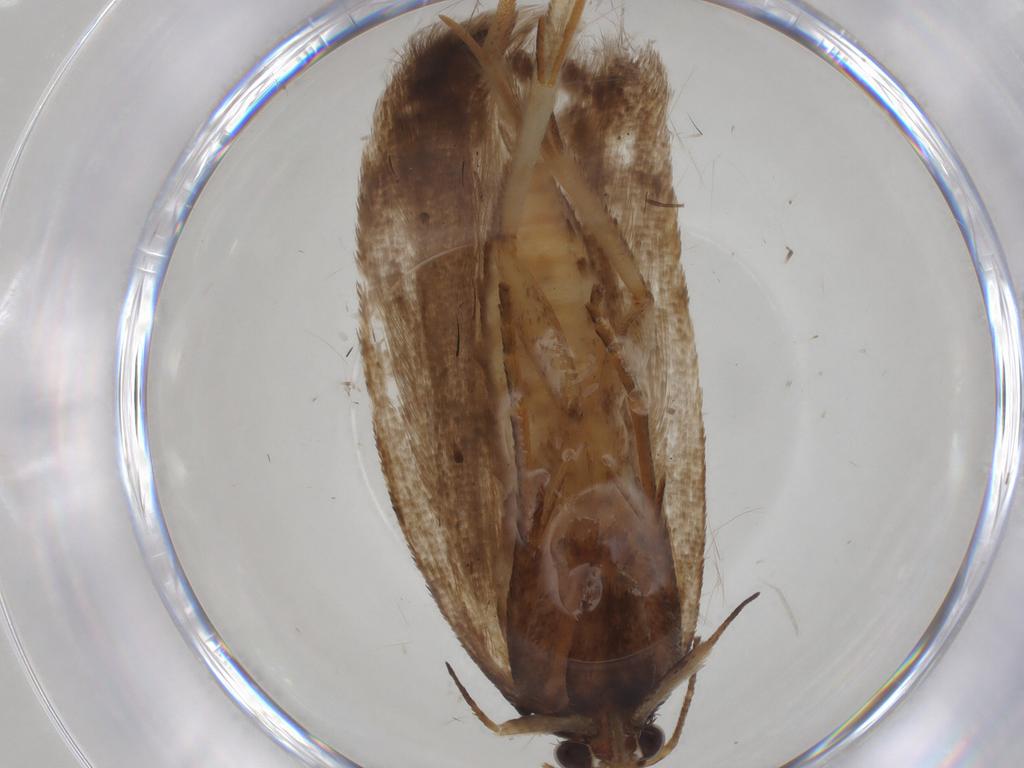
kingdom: Animalia
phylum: Arthropoda
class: Insecta
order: Lepidoptera
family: Gelechiidae
